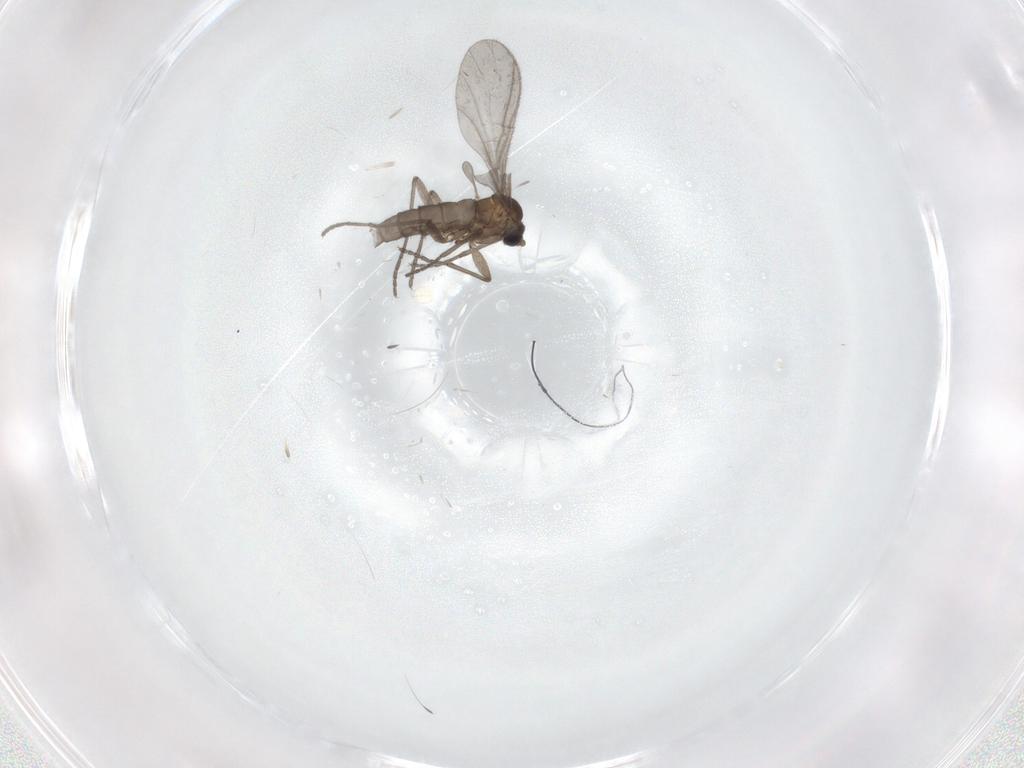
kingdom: Animalia
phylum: Arthropoda
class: Insecta
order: Diptera
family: Sciaridae
